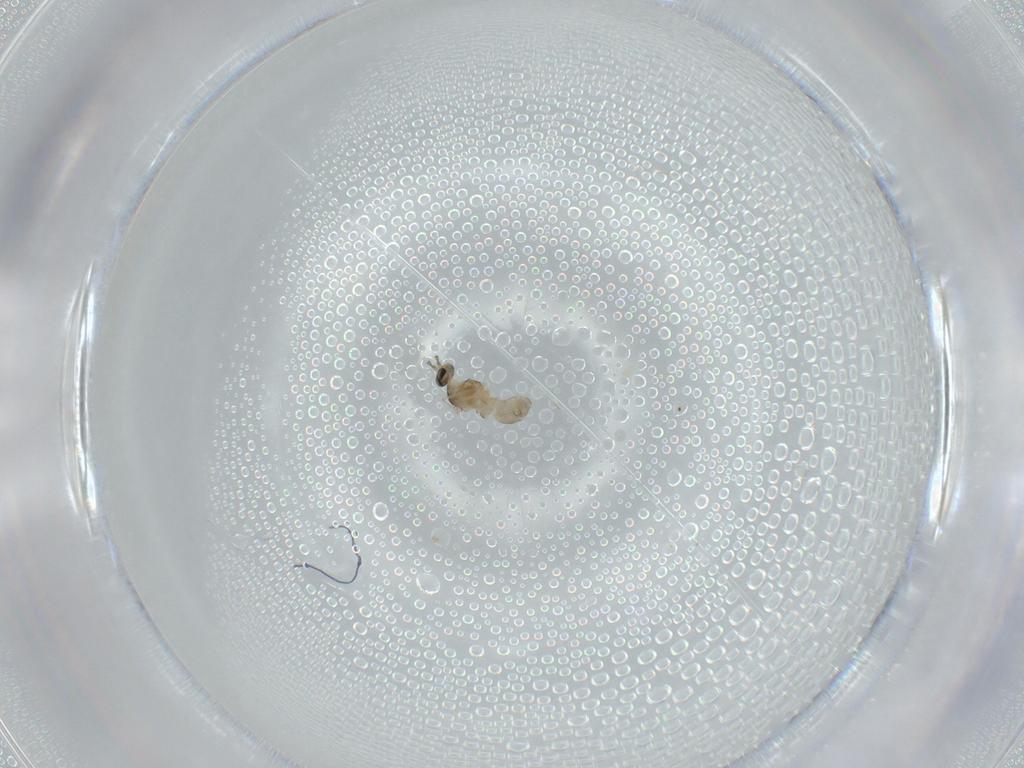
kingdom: Animalia
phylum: Arthropoda
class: Insecta
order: Diptera
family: Cecidomyiidae
